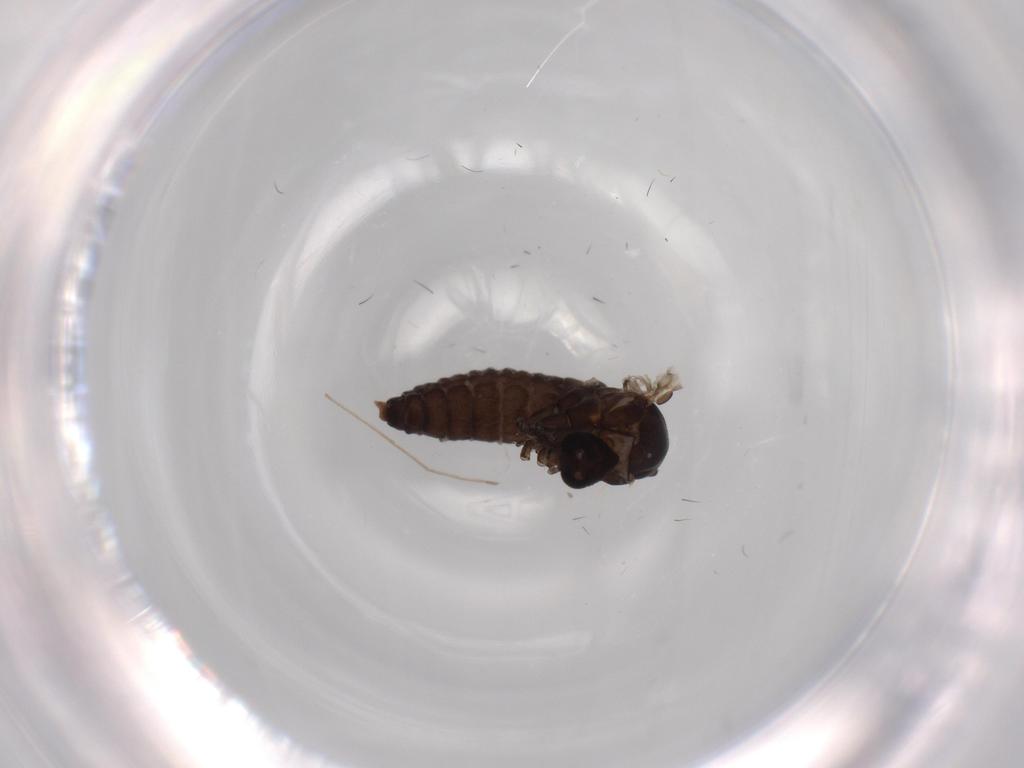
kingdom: Animalia
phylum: Arthropoda
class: Insecta
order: Diptera
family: Psychodidae
